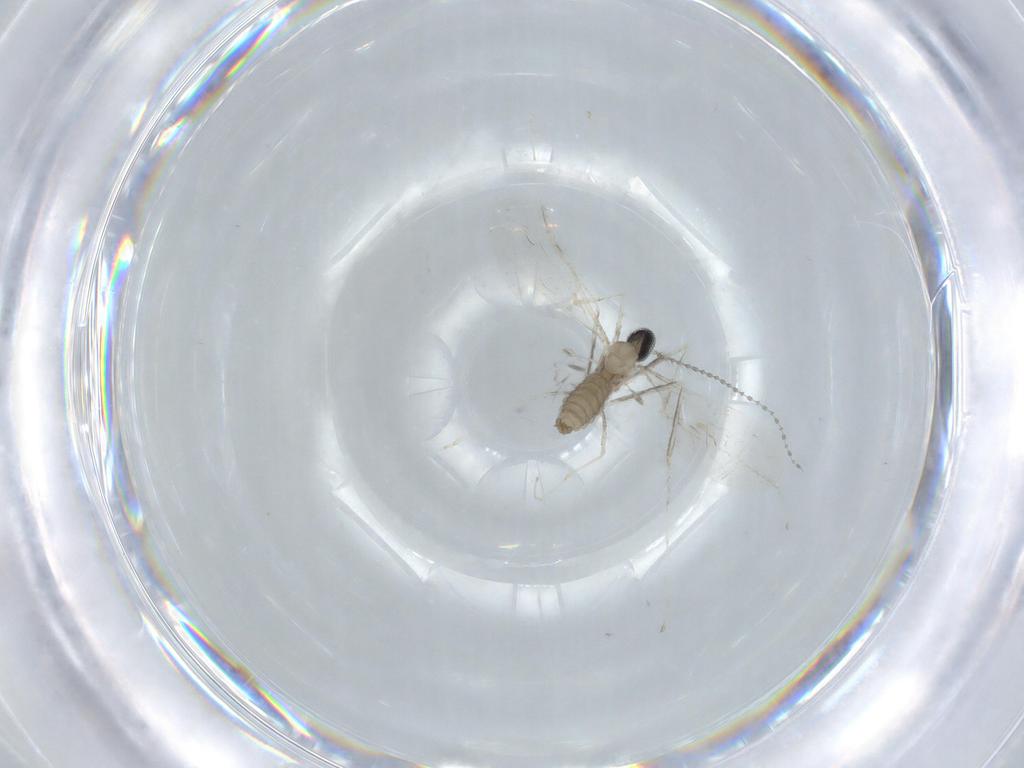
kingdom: Animalia
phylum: Arthropoda
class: Insecta
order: Diptera
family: Cecidomyiidae
